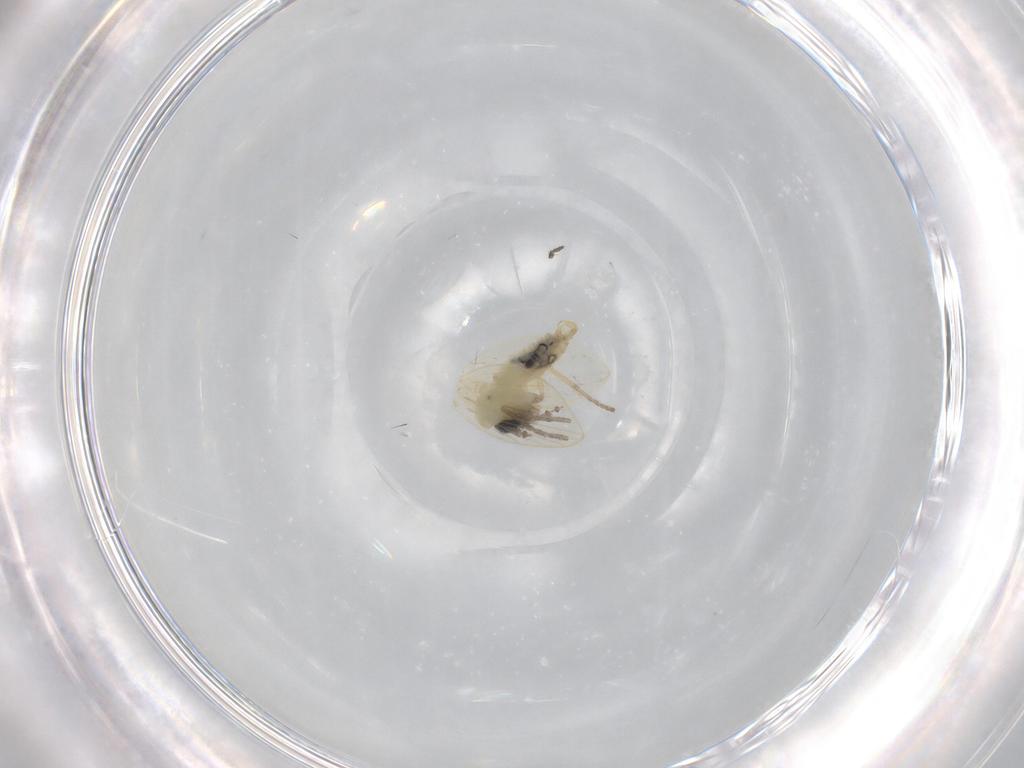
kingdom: Animalia
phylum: Arthropoda
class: Insecta
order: Diptera
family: Psychodidae
